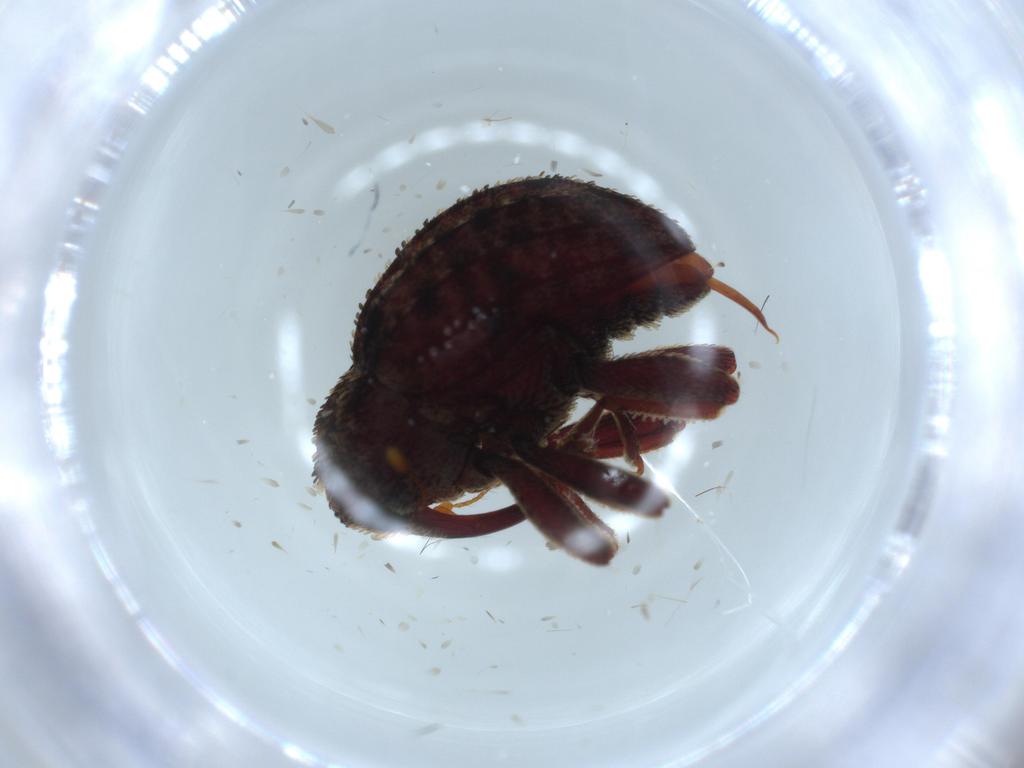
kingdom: Animalia
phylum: Arthropoda
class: Insecta
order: Coleoptera
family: Curculionidae
